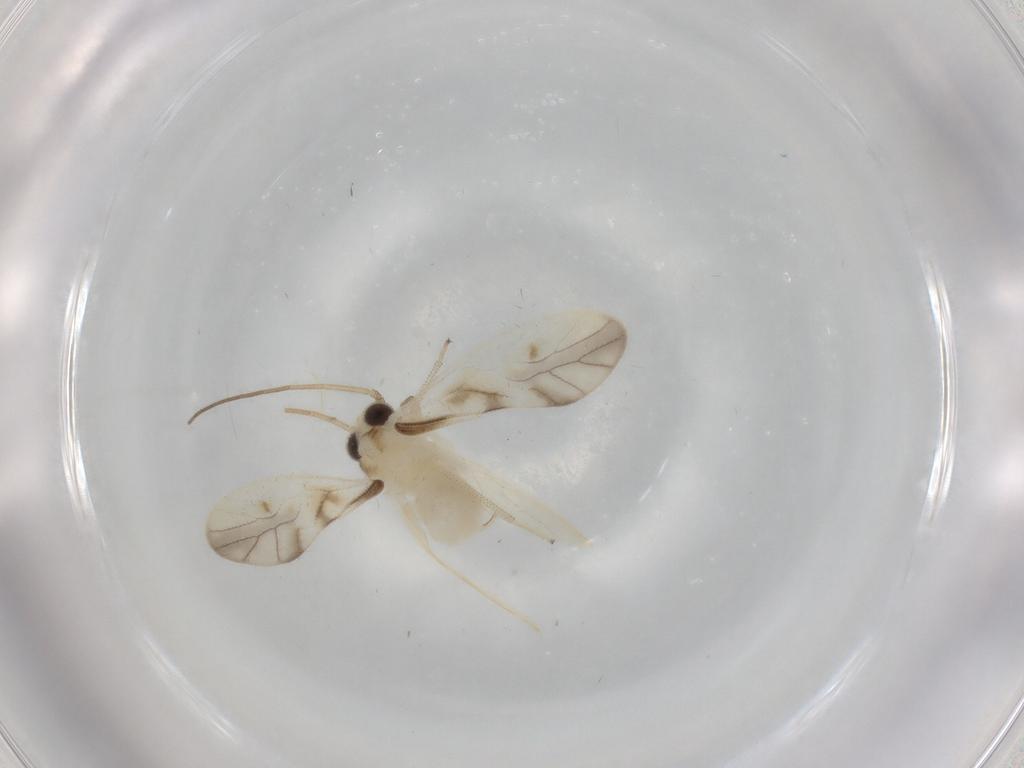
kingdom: Animalia
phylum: Arthropoda
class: Insecta
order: Psocodea
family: Caeciliusidae
